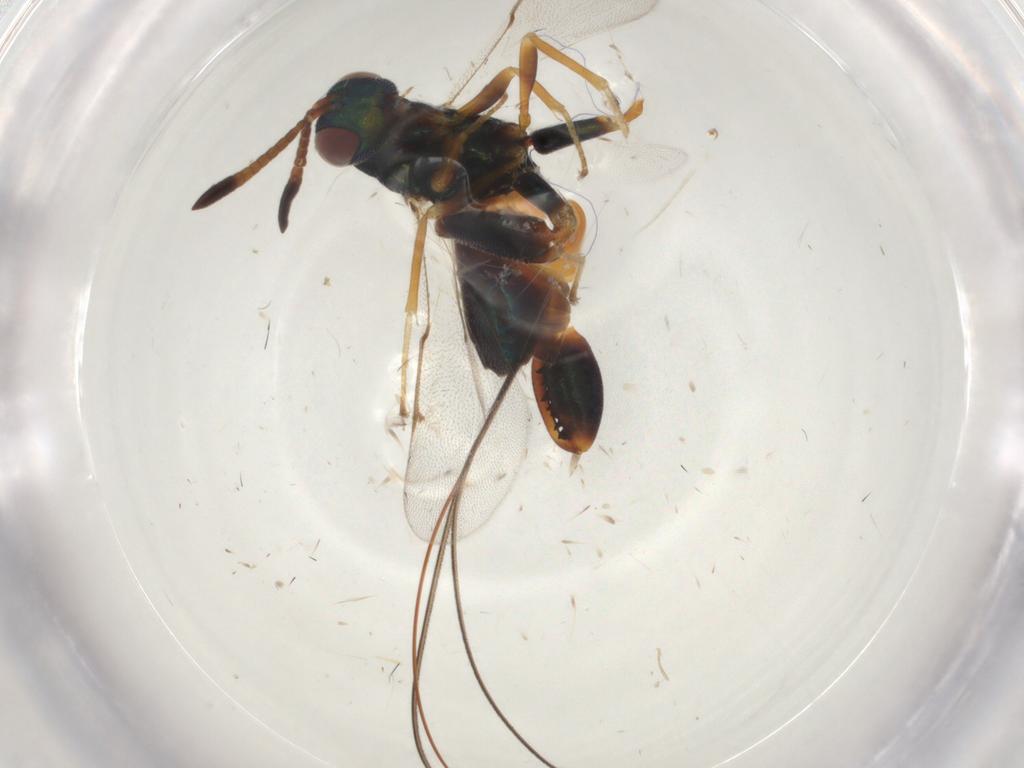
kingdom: Animalia
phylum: Arthropoda
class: Insecta
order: Hymenoptera
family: Torymidae
